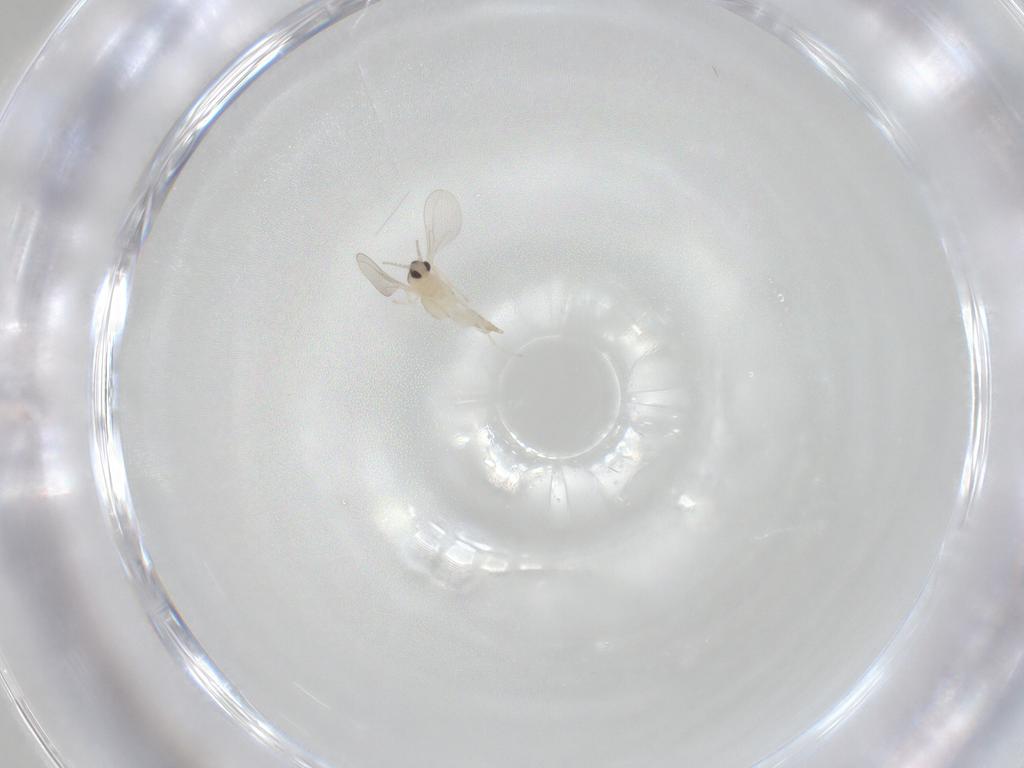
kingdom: Animalia
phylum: Arthropoda
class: Insecta
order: Diptera
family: Cecidomyiidae
